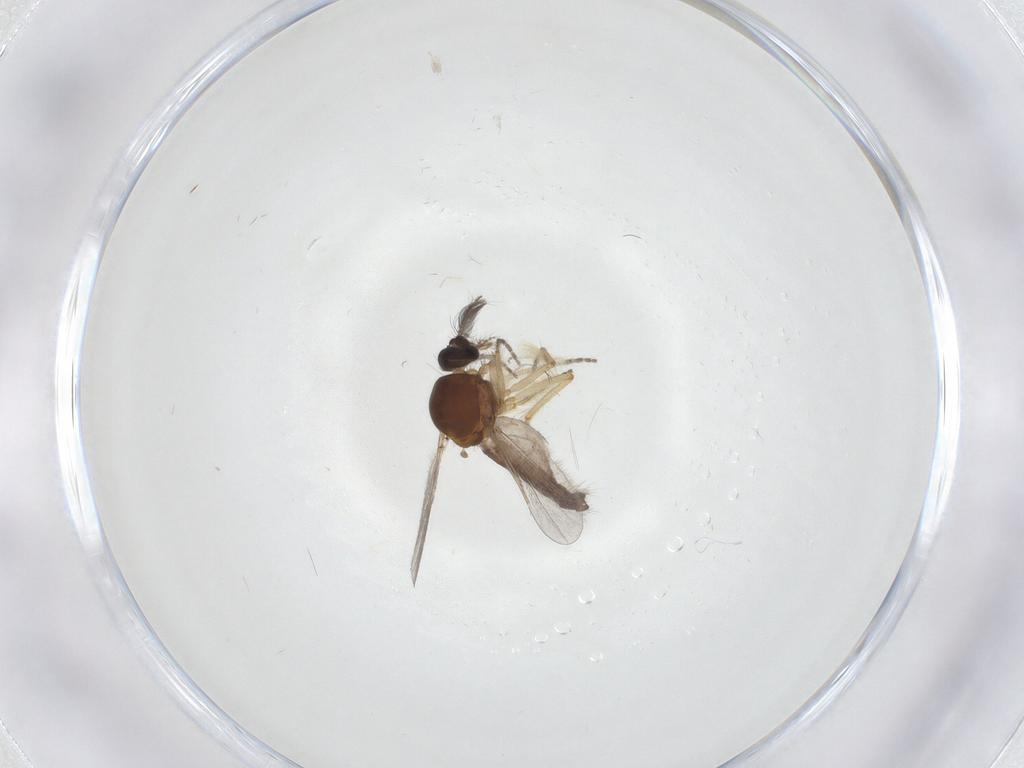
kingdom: Animalia
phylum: Arthropoda
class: Insecta
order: Diptera
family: Ceratopogonidae
